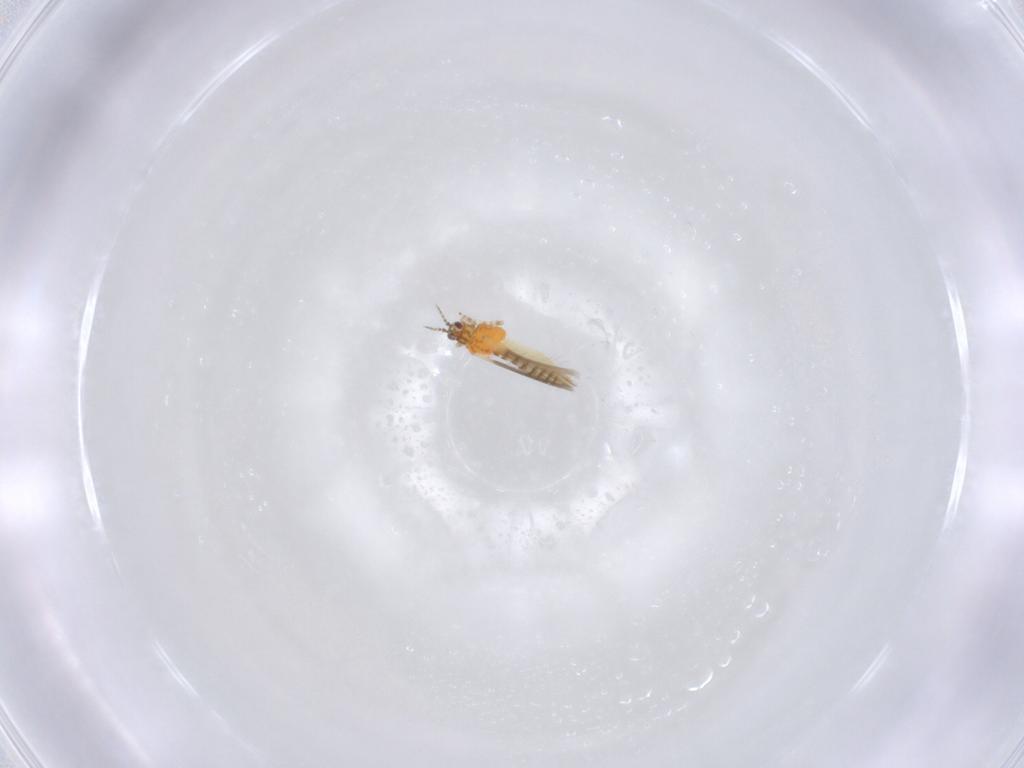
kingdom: Animalia
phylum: Arthropoda
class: Insecta
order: Thysanoptera
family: Thripidae
